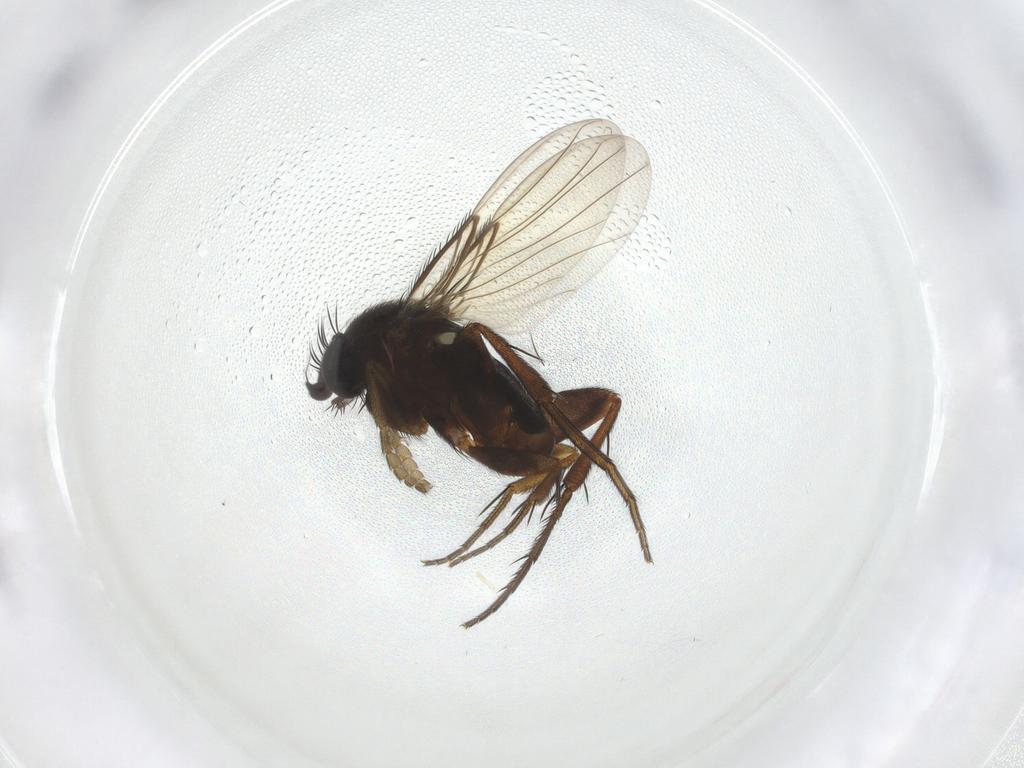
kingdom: Animalia
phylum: Arthropoda
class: Insecta
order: Diptera
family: Phoridae
